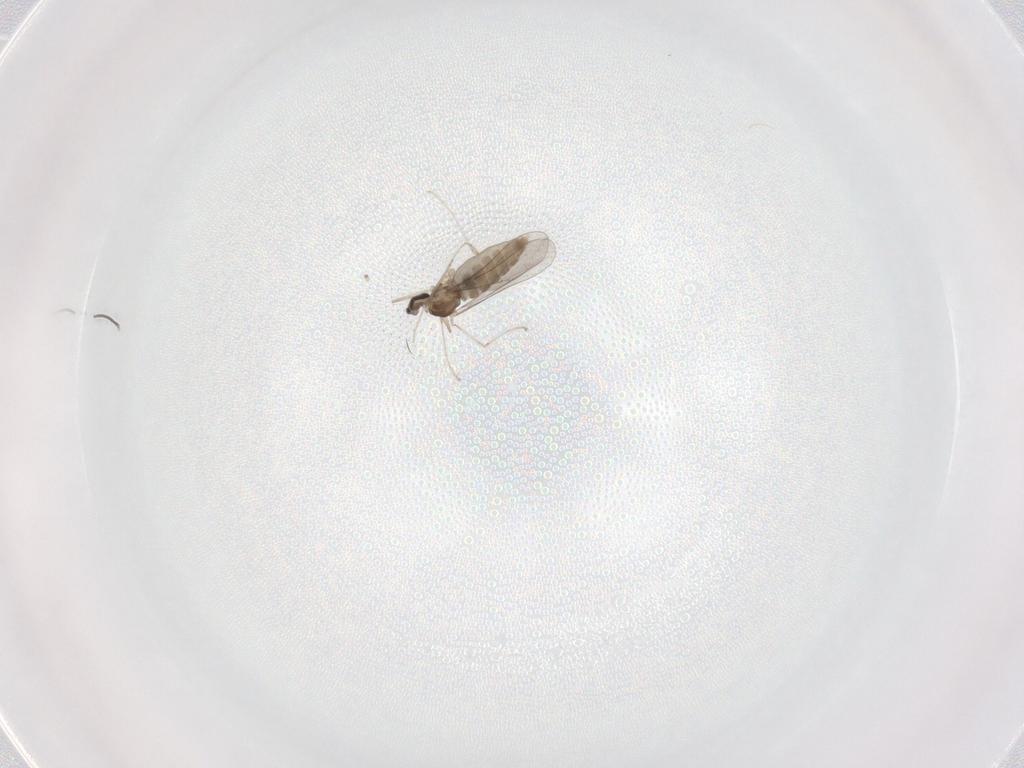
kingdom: Animalia
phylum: Arthropoda
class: Insecta
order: Diptera
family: Phoridae
